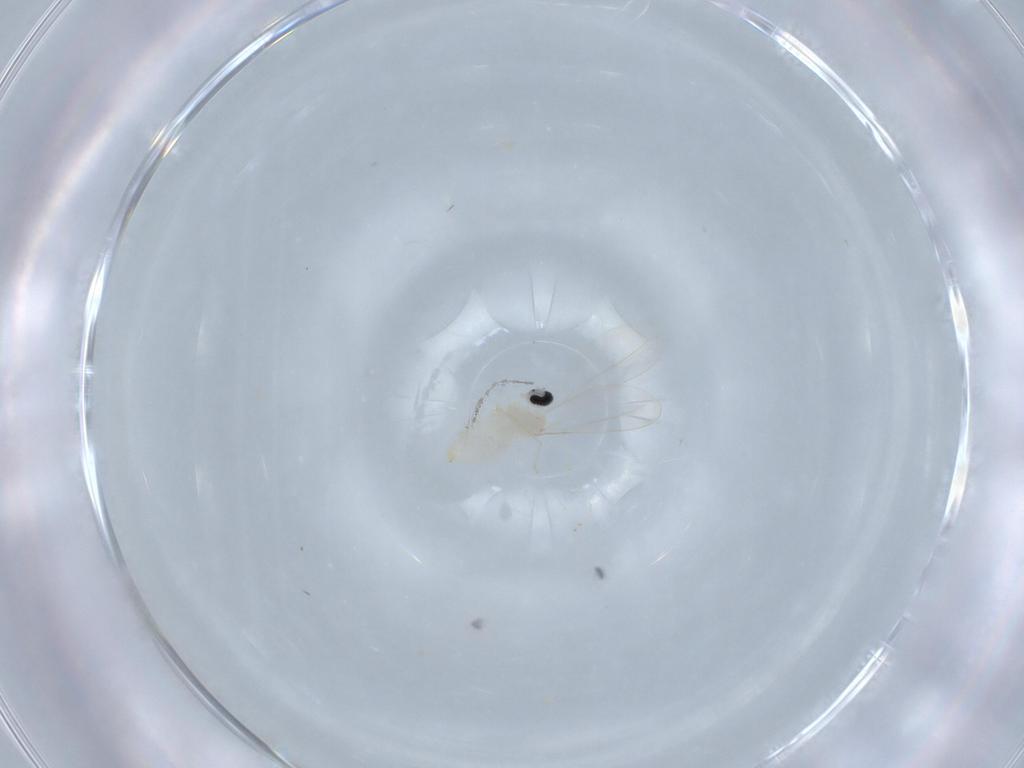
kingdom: Animalia
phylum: Arthropoda
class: Insecta
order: Diptera
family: Cecidomyiidae
